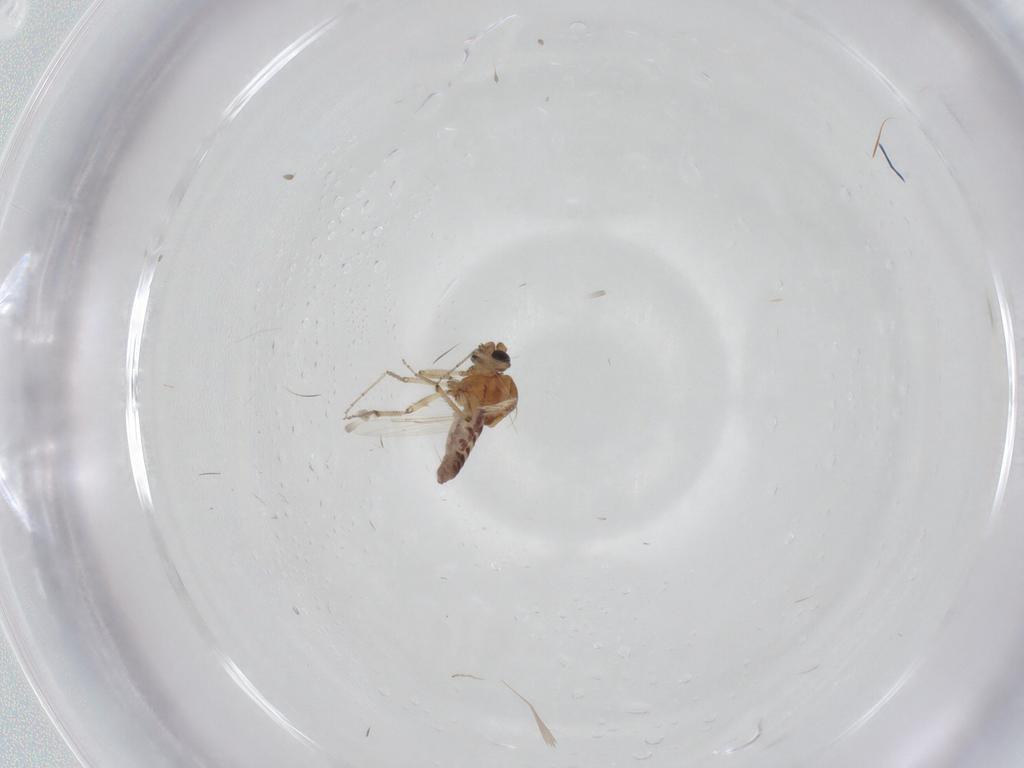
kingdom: Animalia
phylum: Arthropoda
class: Insecta
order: Diptera
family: Ceratopogonidae
